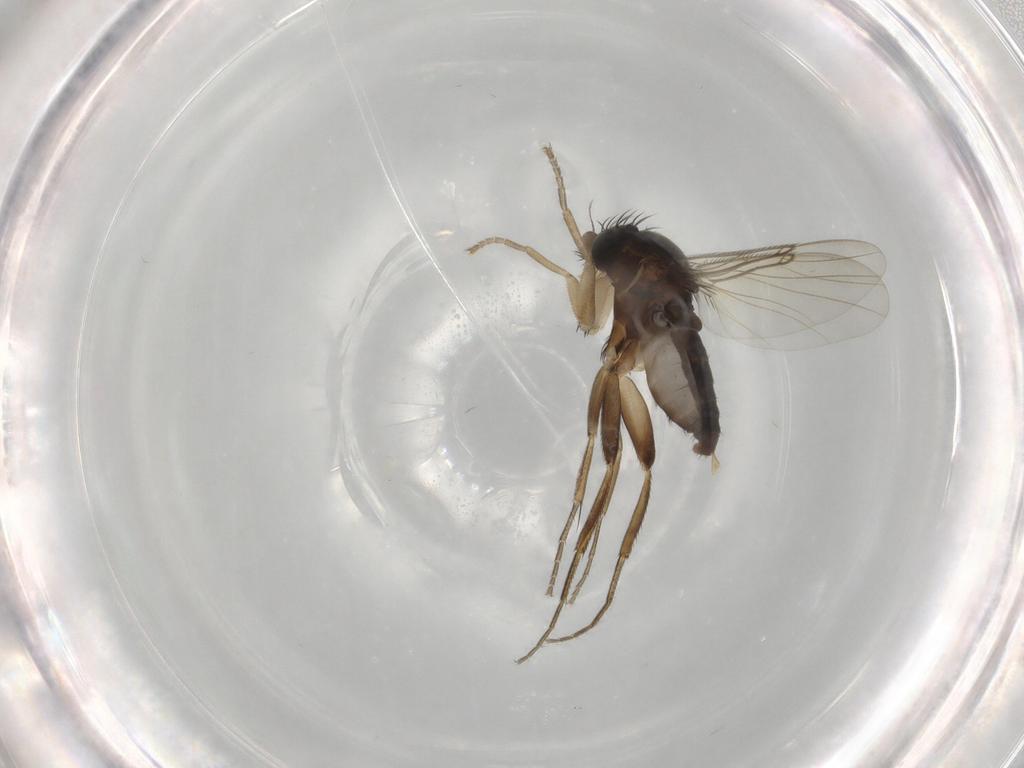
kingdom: Animalia
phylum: Arthropoda
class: Insecta
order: Diptera
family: Phoridae
